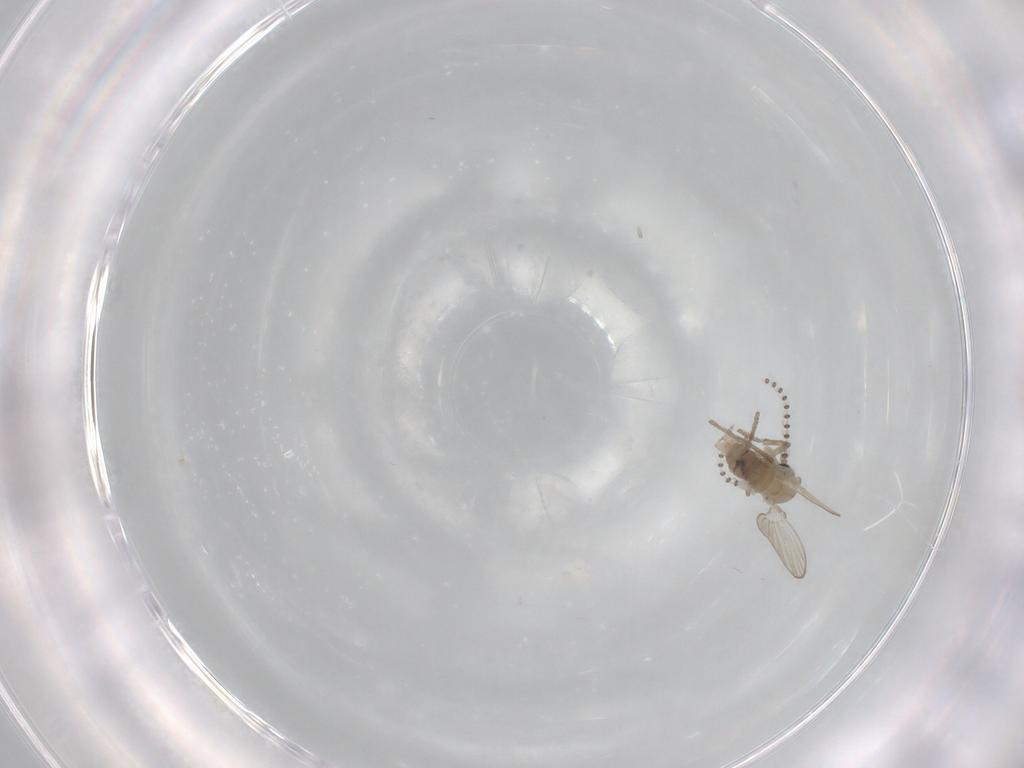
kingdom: Animalia
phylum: Arthropoda
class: Insecta
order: Diptera
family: Psychodidae
